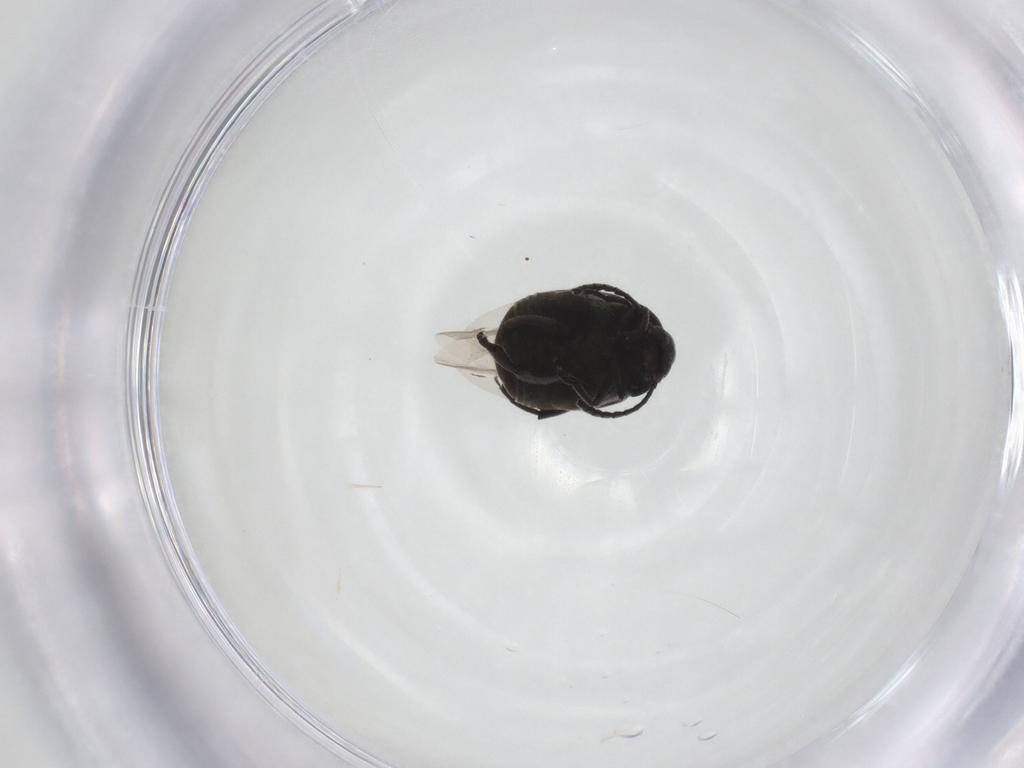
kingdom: Animalia
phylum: Arthropoda
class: Insecta
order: Coleoptera
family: Chrysomelidae
